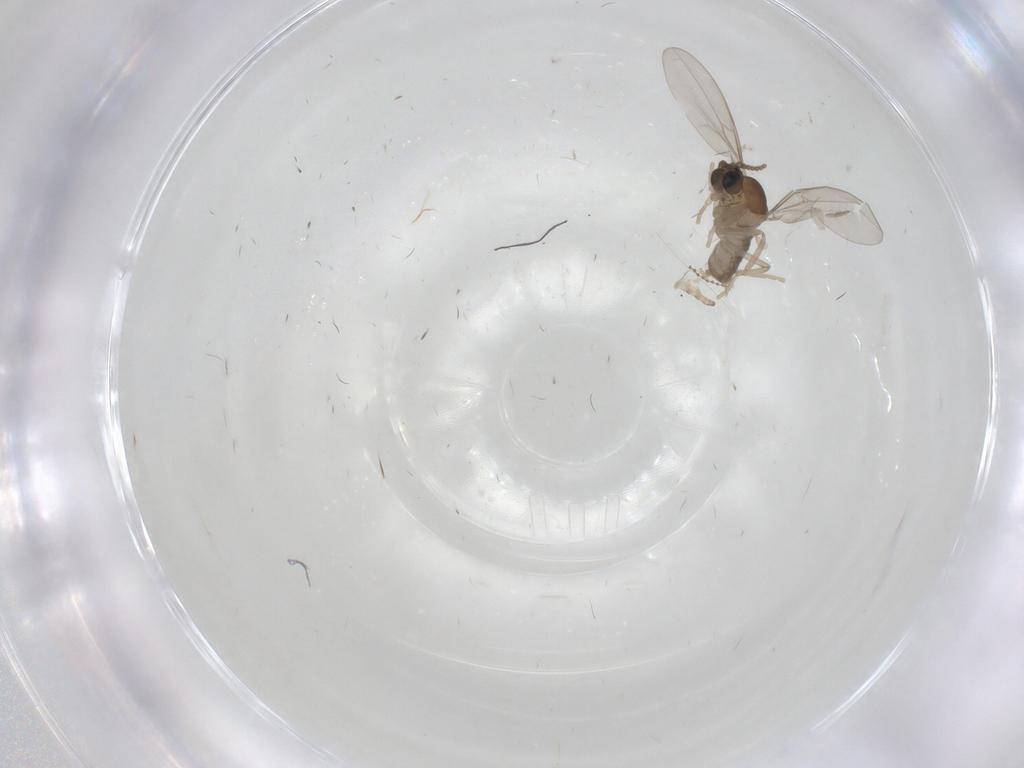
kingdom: Animalia
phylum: Arthropoda
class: Insecta
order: Diptera
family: Cecidomyiidae
